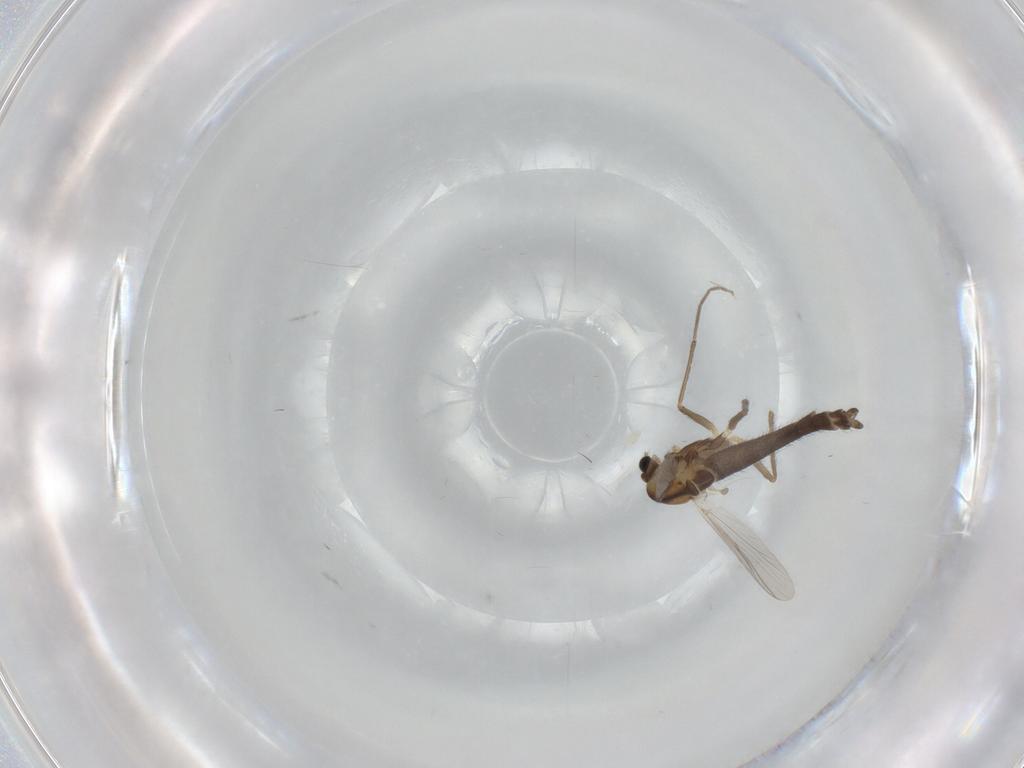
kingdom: Animalia
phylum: Arthropoda
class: Insecta
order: Diptera
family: Chironomidae
